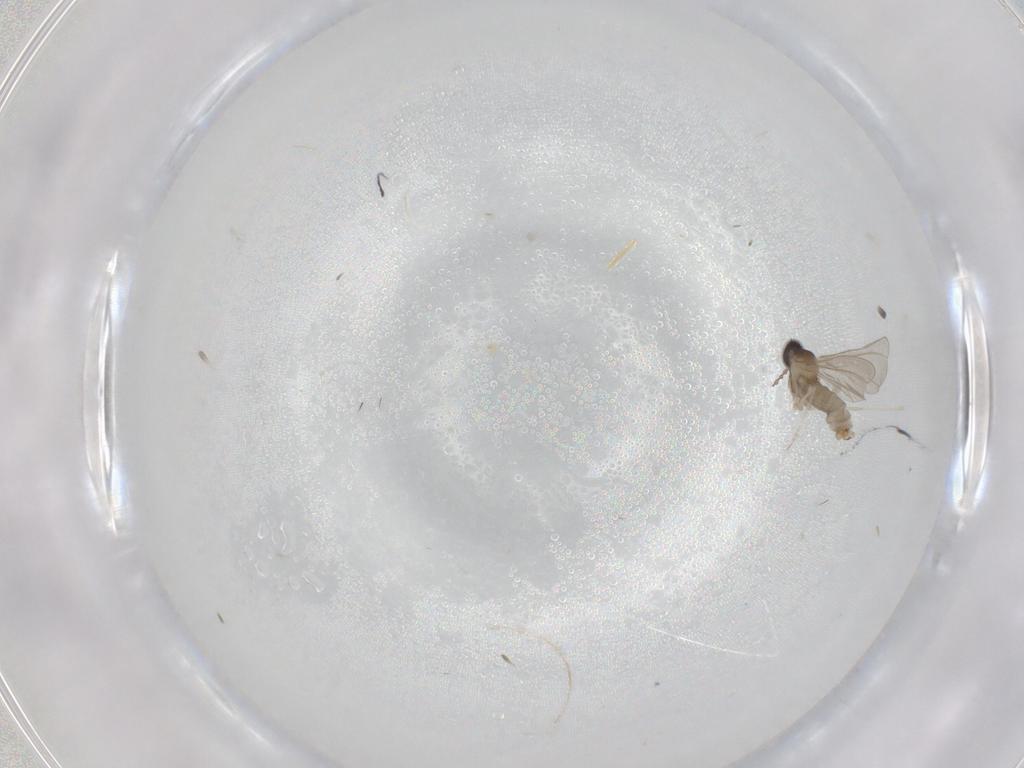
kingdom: Animalia
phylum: Arthropoda
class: Insecta
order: Diptera
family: Cecidomyiidae
